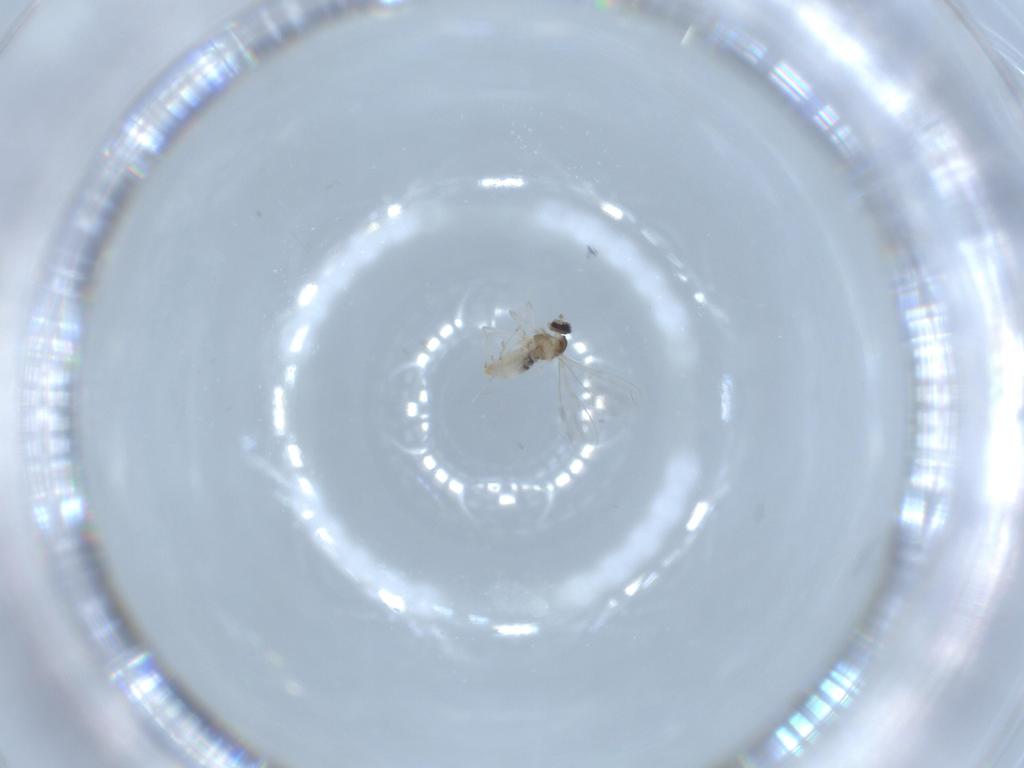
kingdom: Animalia
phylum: Arthropoda
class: Insecta
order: Diptera
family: Cecidomyiidae
